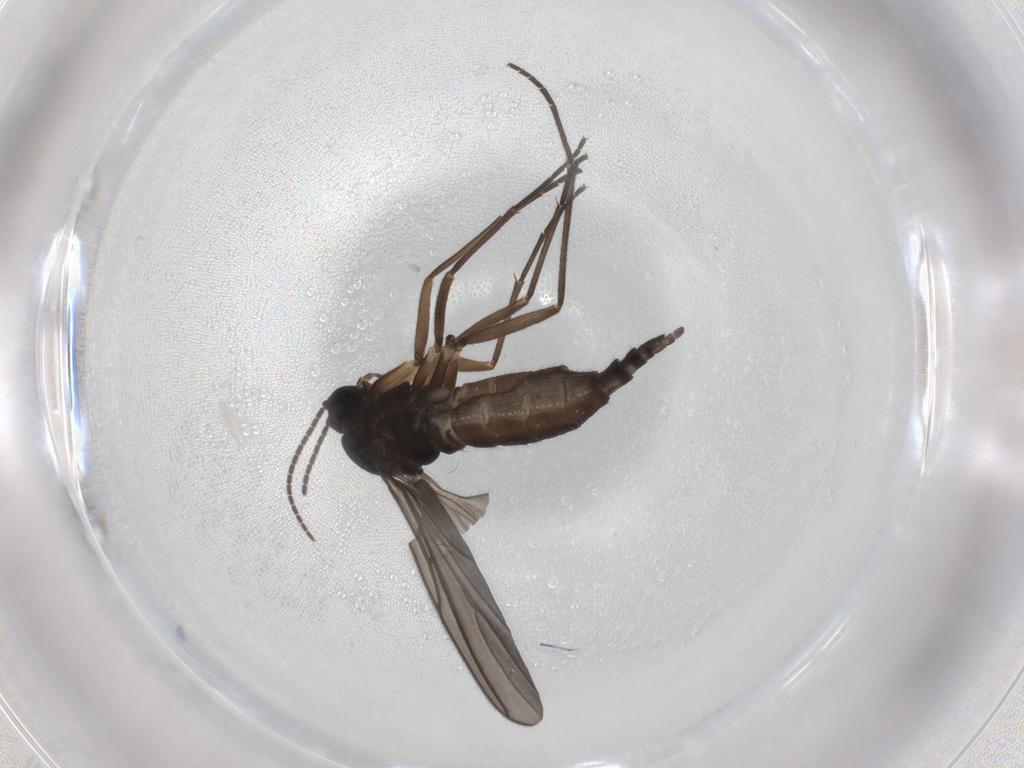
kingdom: Animalia
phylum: Arthropoda
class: Insecta
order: Diptera
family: Sciaridae
